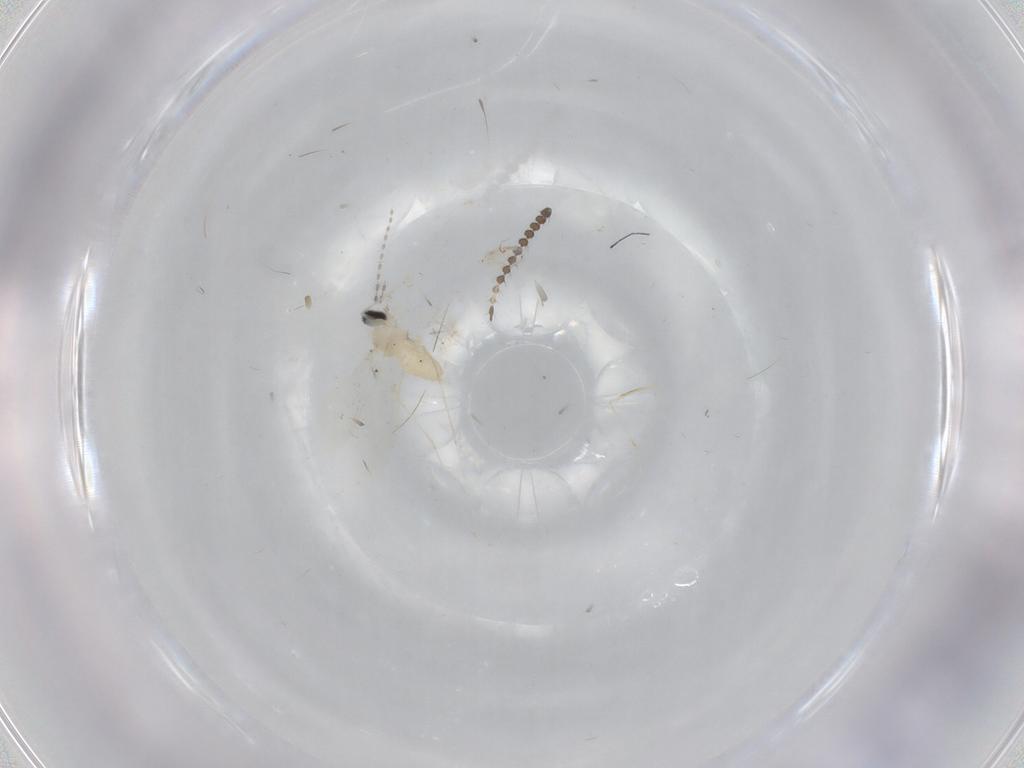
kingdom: Animalia
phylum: Arthropoda
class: Insecta
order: Diptera
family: Cecidomyiidae
